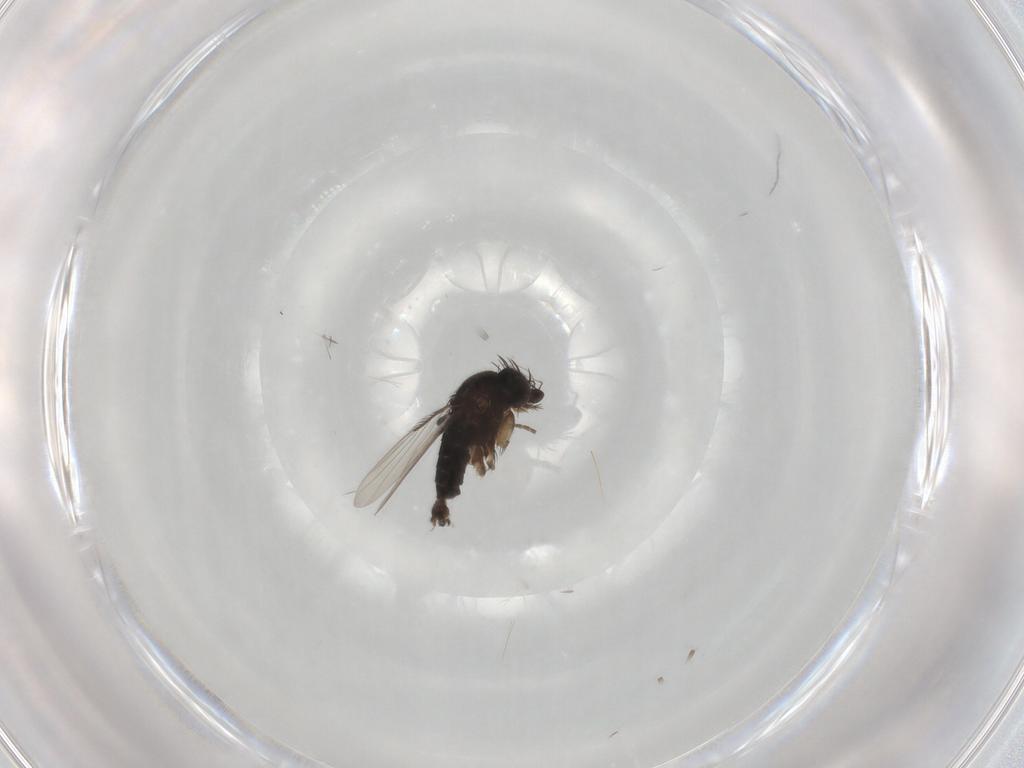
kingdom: Animalia
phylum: Arthropoda
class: Insecta
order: Diptera
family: Phoridae
